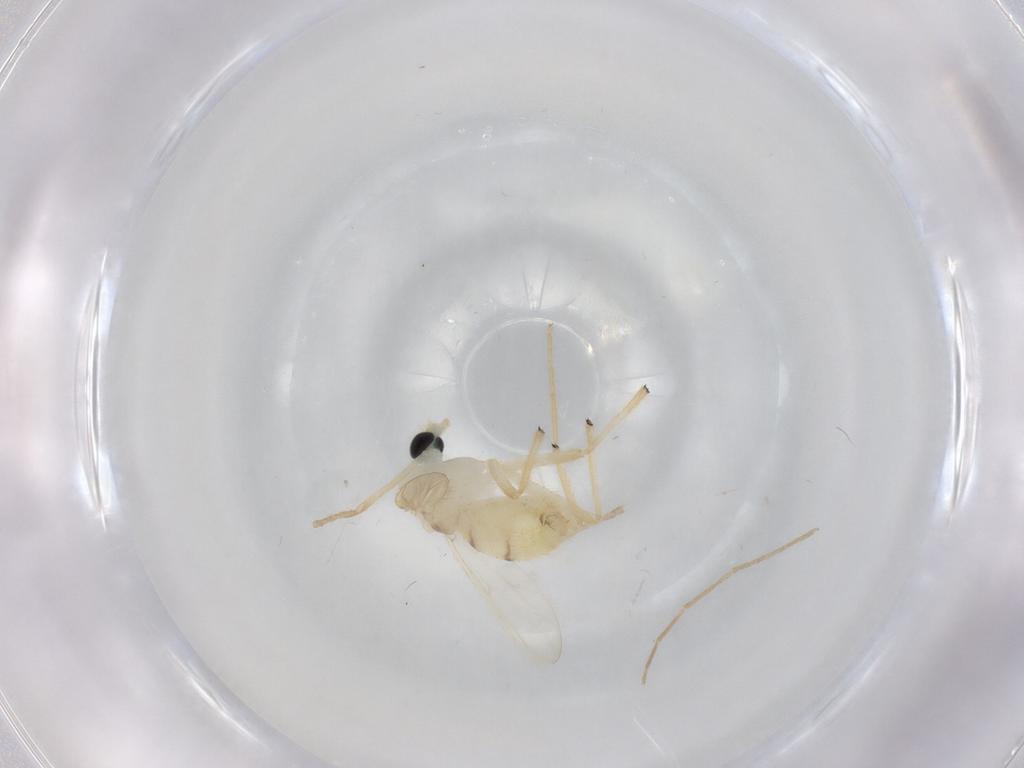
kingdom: Animalia
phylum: Arthropoda
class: Insecta
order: Diptera
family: Chironomidae
